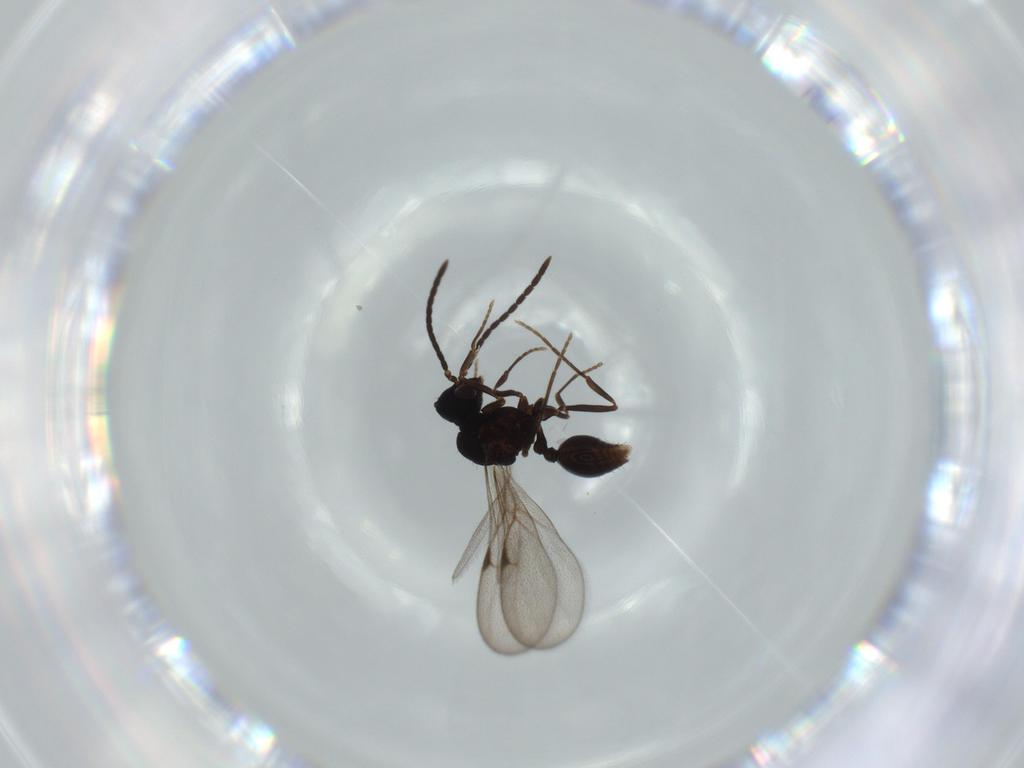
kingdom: Animalia
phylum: Arthropoda
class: Insecta
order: Hymenoptera
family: Formicidae
